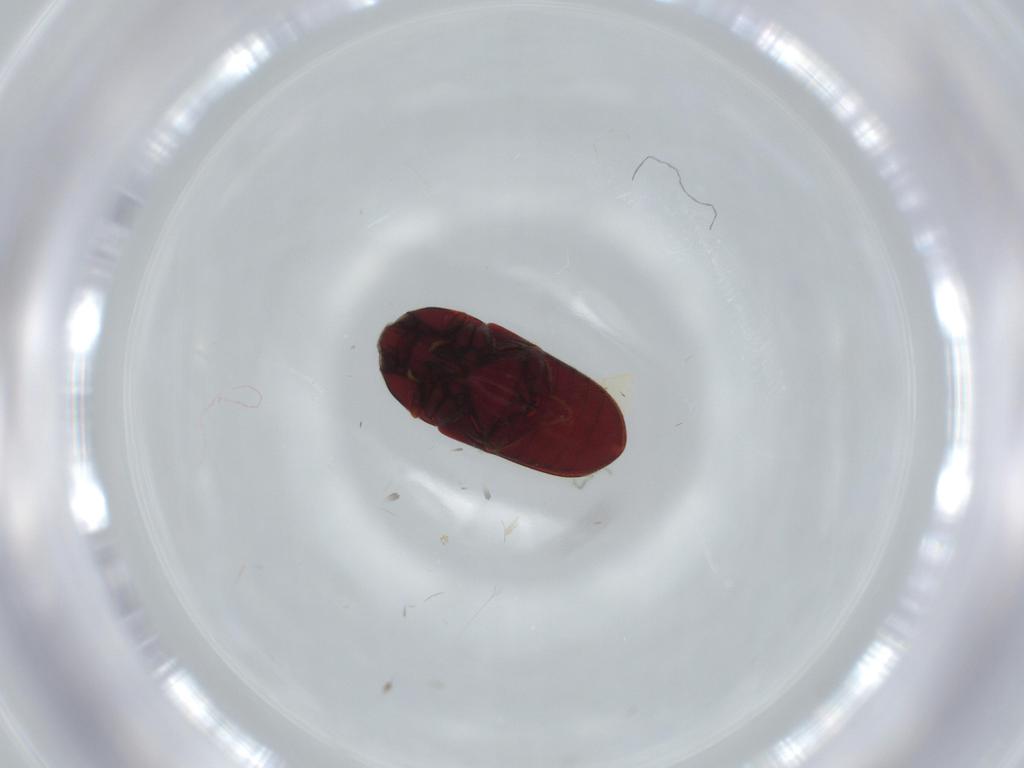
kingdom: Animalia
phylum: Arthropoda
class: Insecta
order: Coleoptera
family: Throscidae
